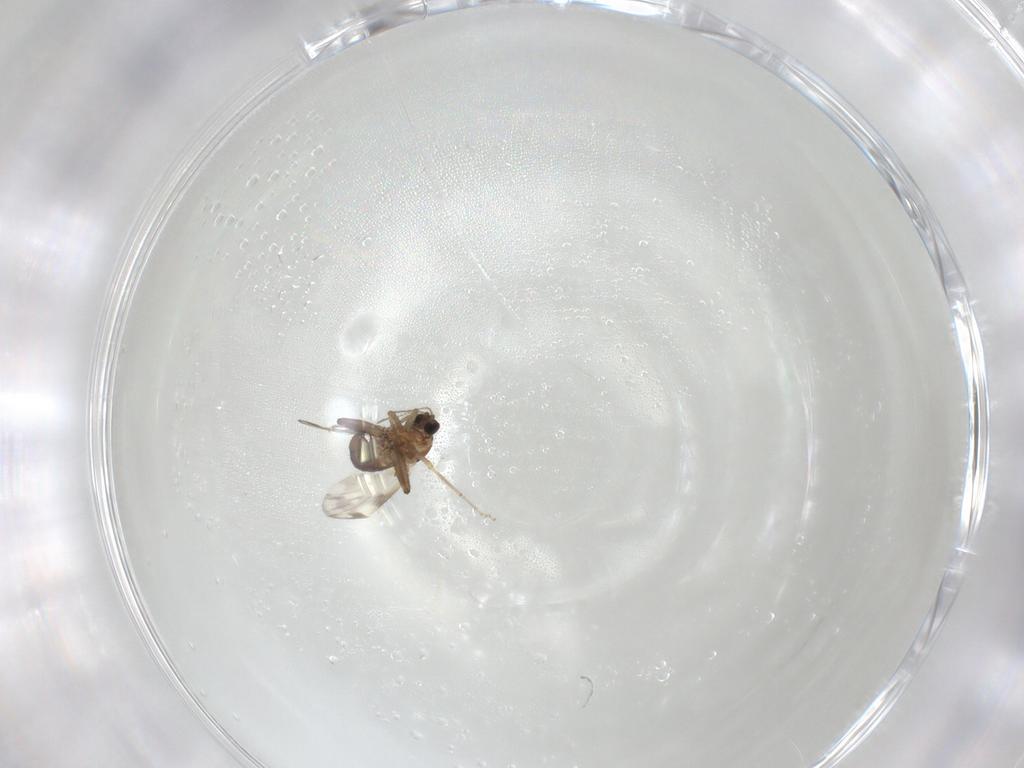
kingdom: Animalia
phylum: Arthropoda
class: Insecta
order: Diptera
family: Ceratopogonidae
